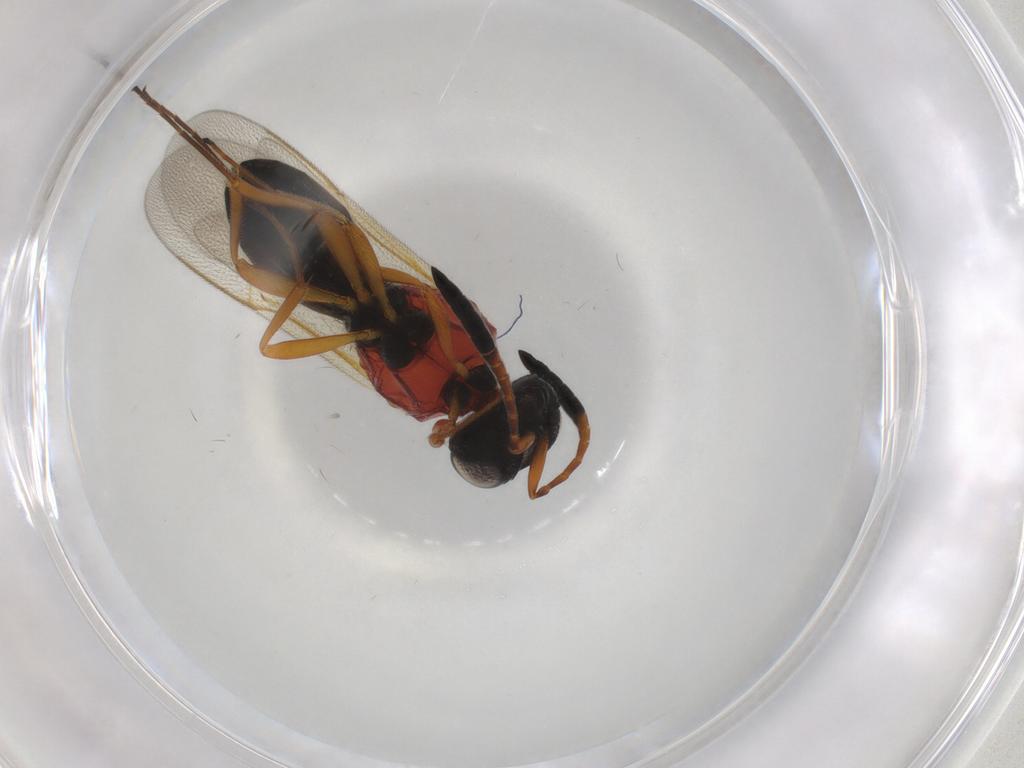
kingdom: Animalia
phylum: Arthropoda
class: Insecta
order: Hymenoptera
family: Scelionidae
